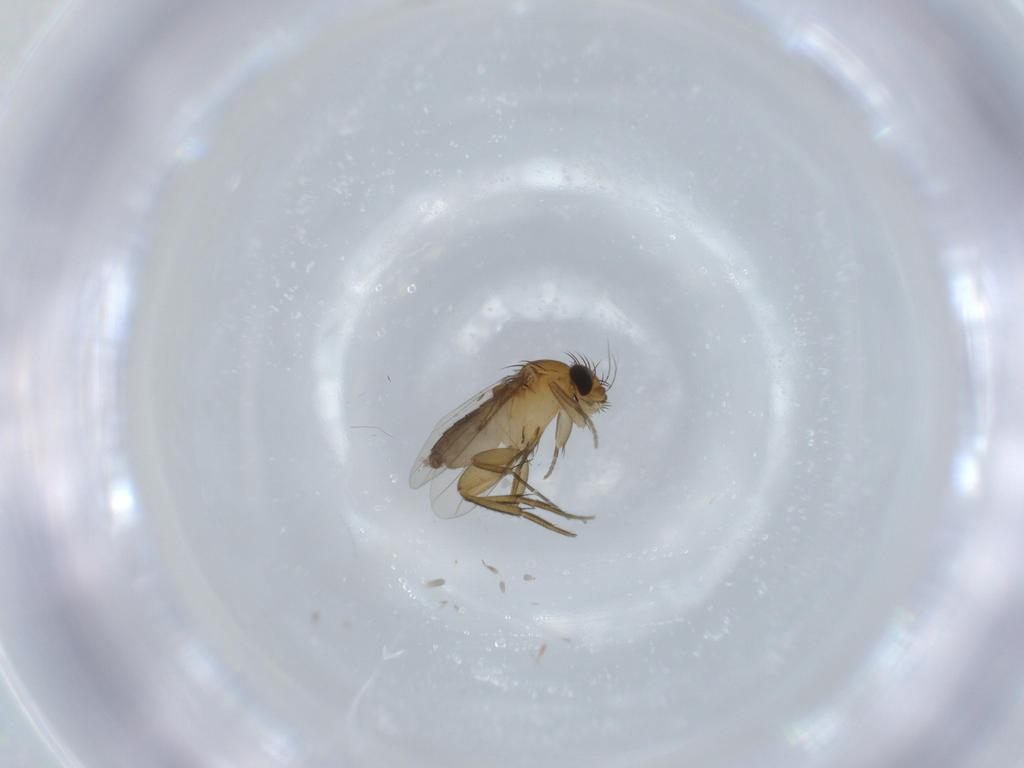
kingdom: Animalia
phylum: Arthropoda
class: Insecta
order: Diptera
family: Phoridae
